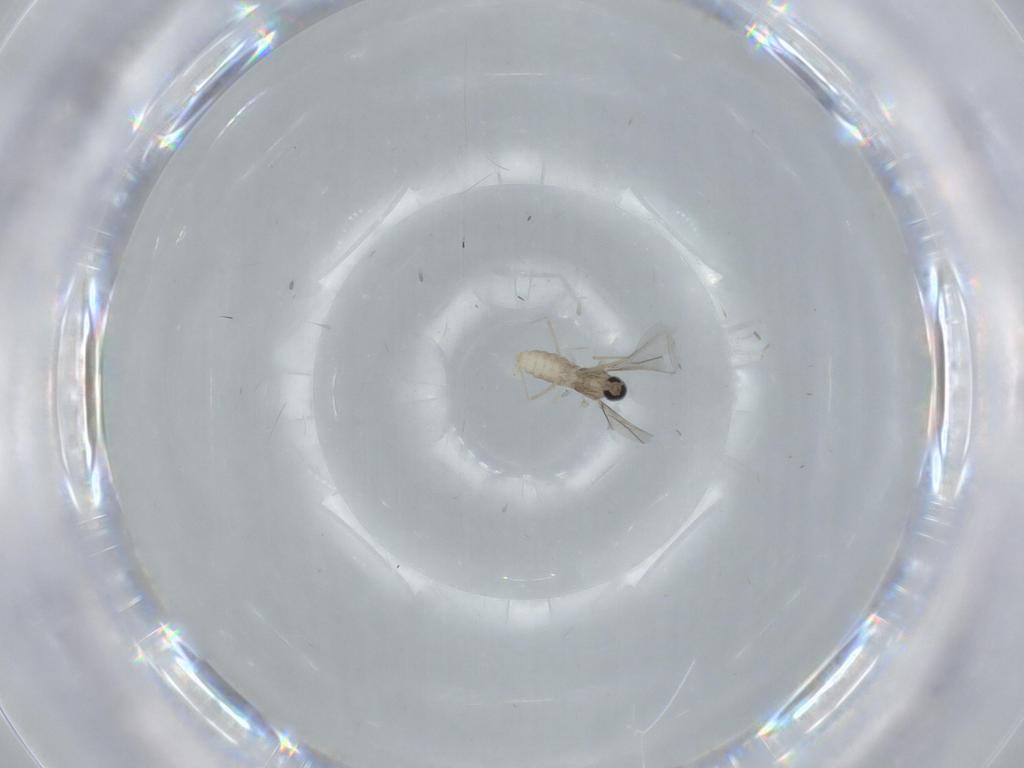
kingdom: Animalia
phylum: Arthropoda
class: Insecta
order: Diptera
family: Cecidomyiidae
